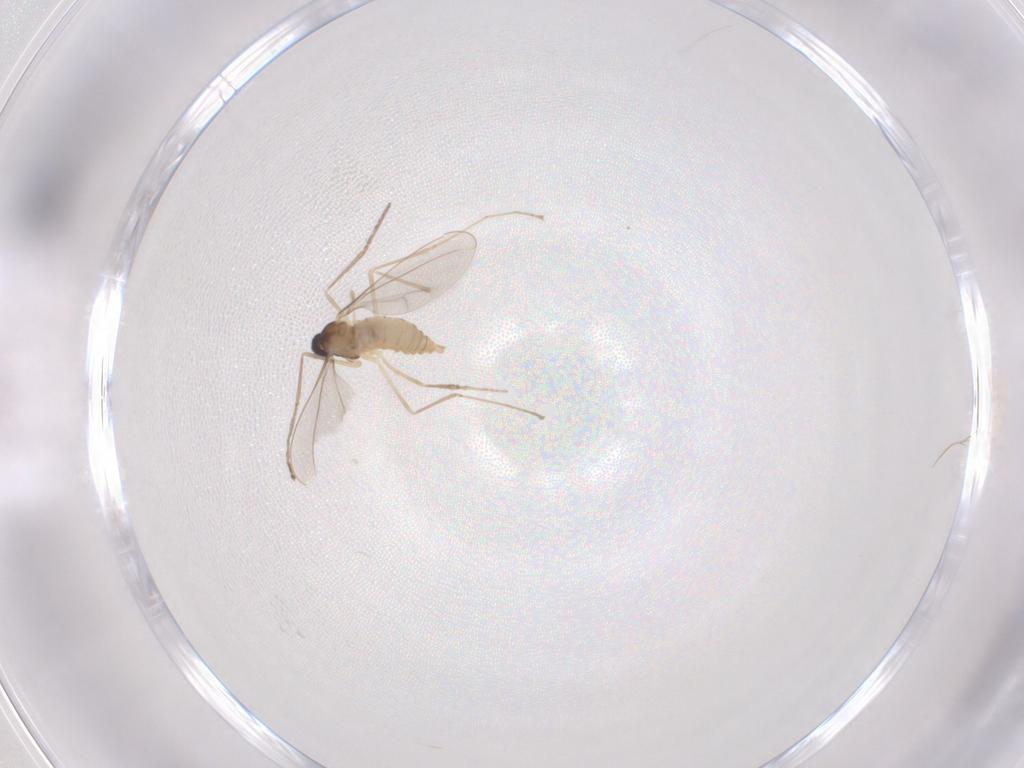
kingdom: Animalia
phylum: Arthropoda
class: Insecta
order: Diptera
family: Cecidomyiidae
